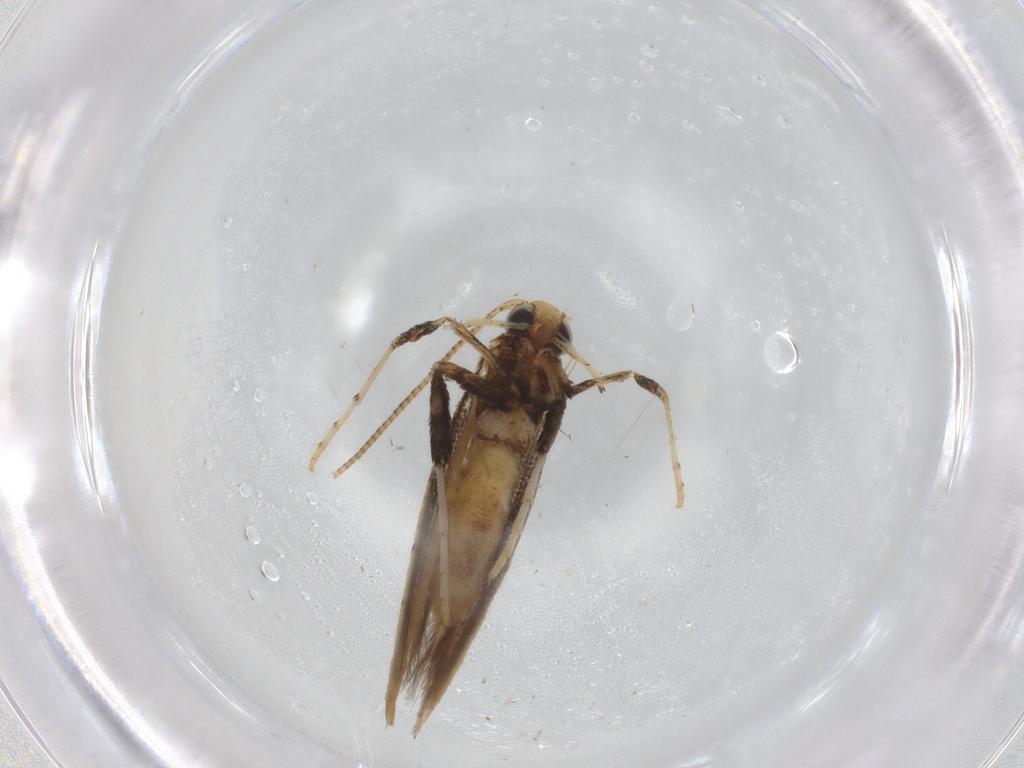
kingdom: Animalia
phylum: Arthropoda
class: Insecta
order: Lepidoptera
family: Gracillariidae
